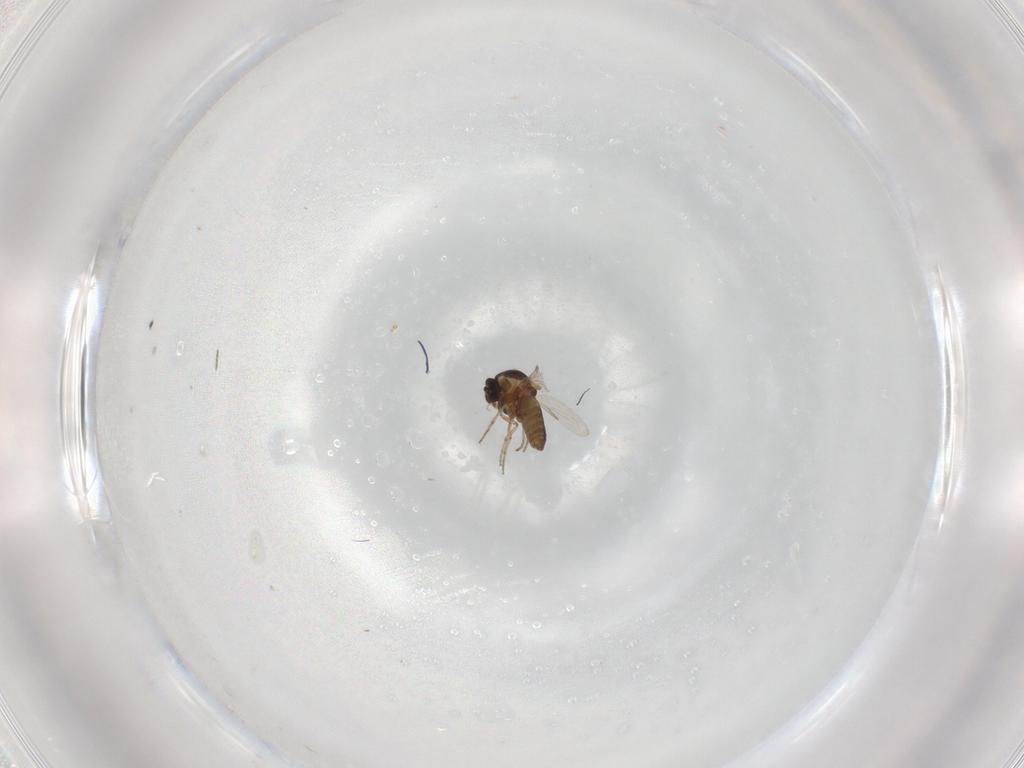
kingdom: Animalia
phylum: Arthropoda
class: Insecta
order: Diptera
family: Ceratopogonidae
